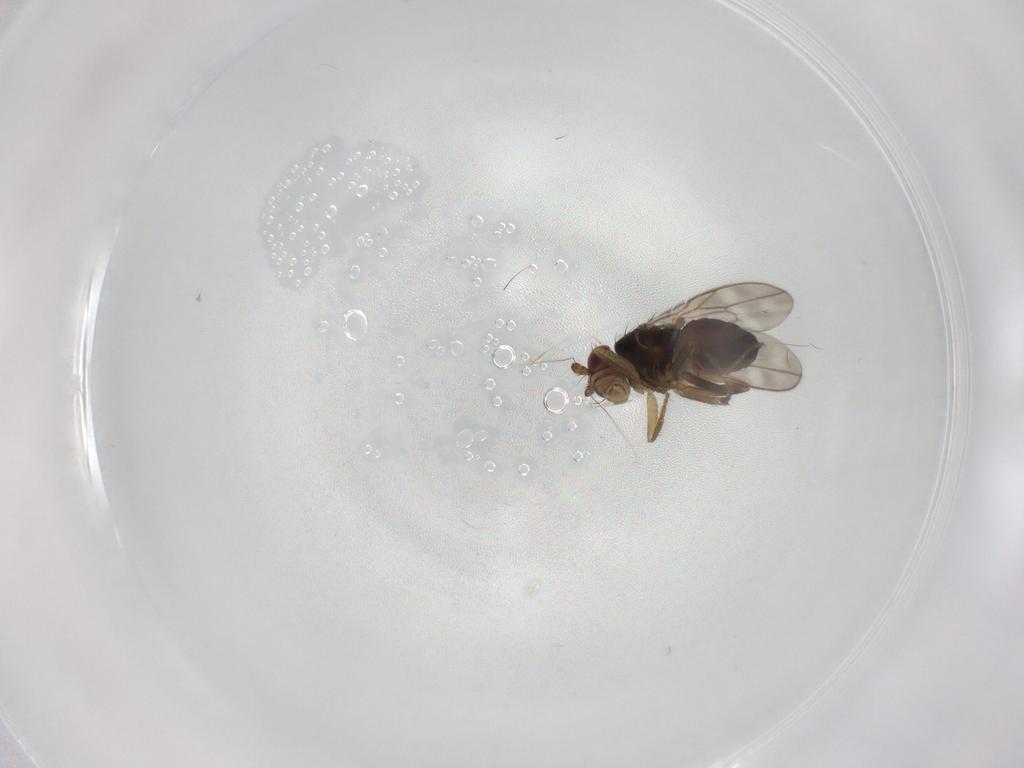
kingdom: Animalia
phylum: Arthropoda
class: Insecta
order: Diptera
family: Sphaeroceridae
